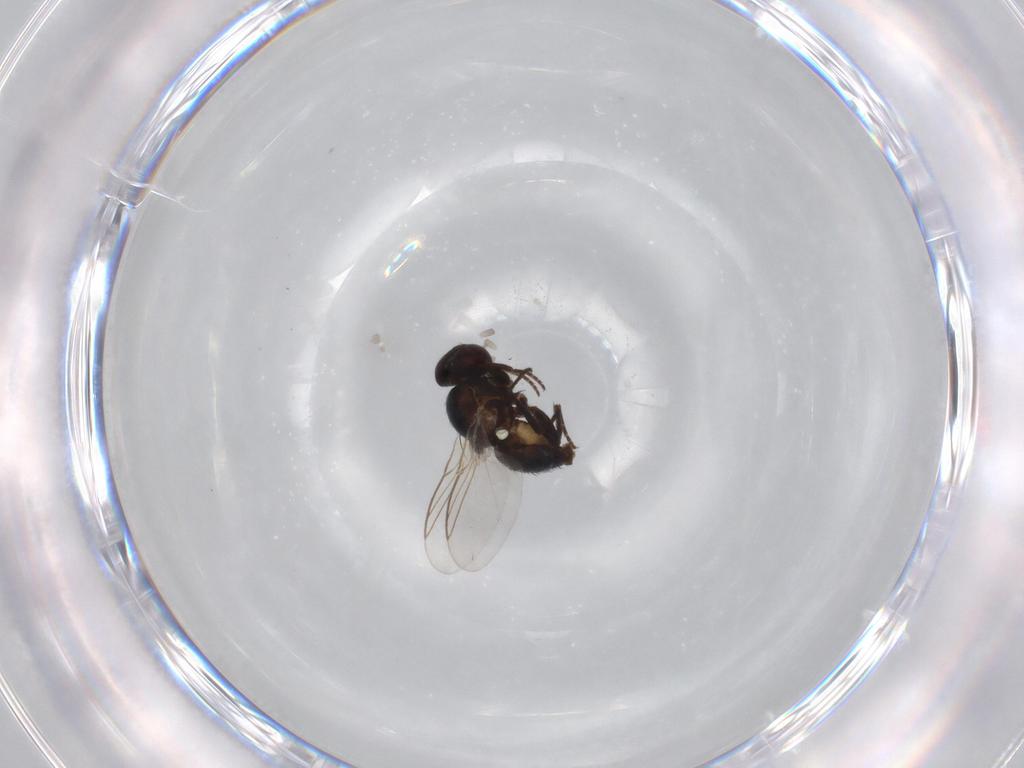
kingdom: Animalia
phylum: Arthropoda
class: Insecta
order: Diptera
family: Agromyzidae
